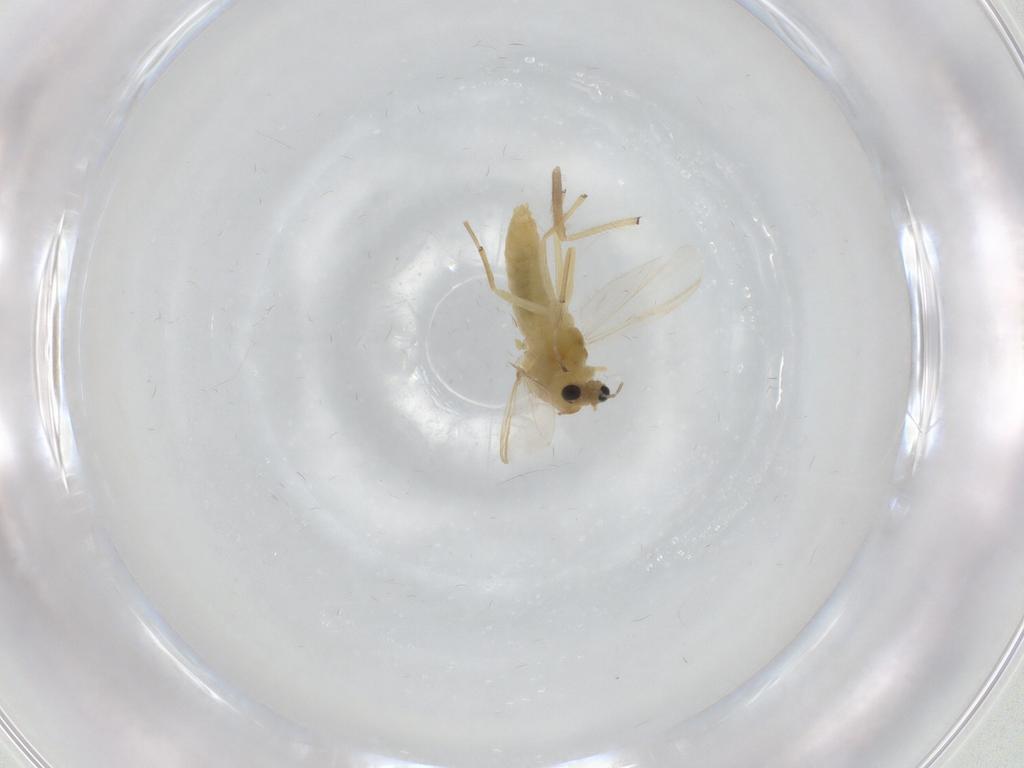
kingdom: Animalia
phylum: Arthropoda
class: Insecta
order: Diptera
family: Chironomidae
